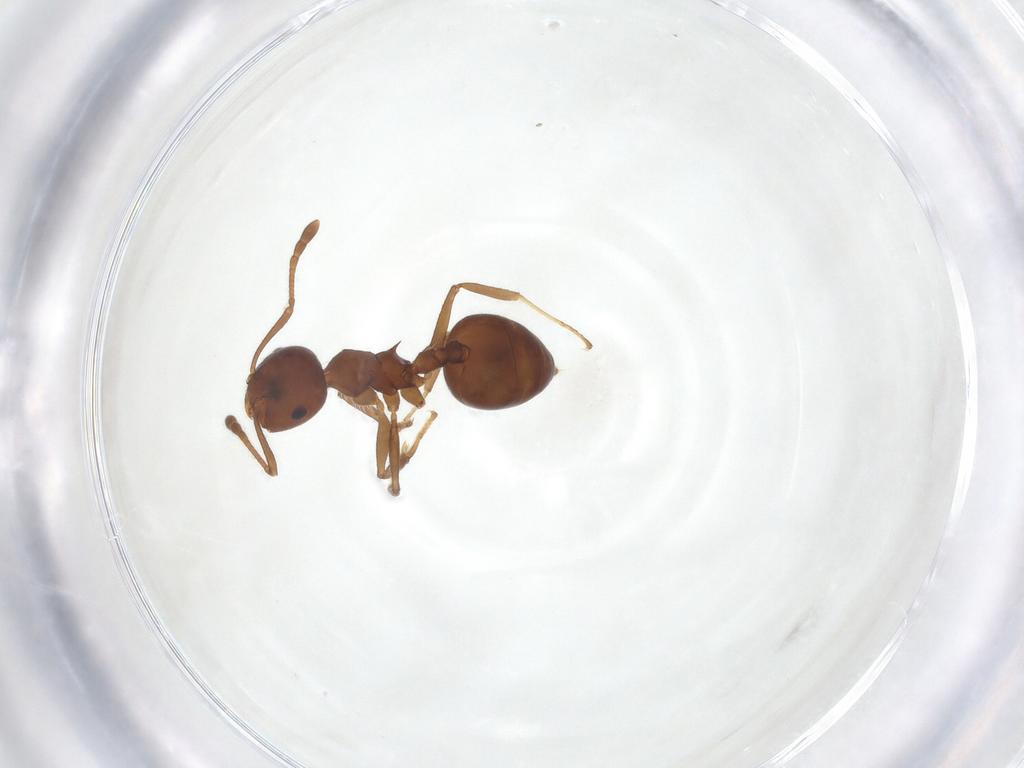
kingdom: Animalia
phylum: Arthropoda
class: Insecta
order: Hymenoptera
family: Formicidae
